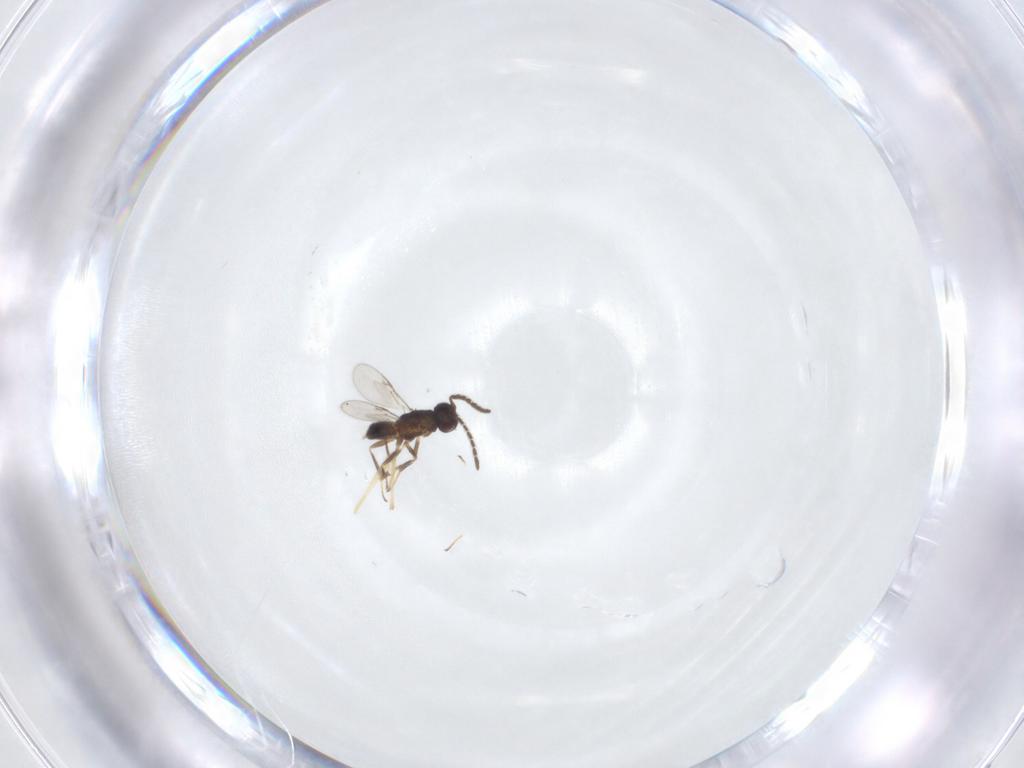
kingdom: Animalia
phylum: Arthropoda
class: Insecta
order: Hymenoptera
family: Encyrtidae
